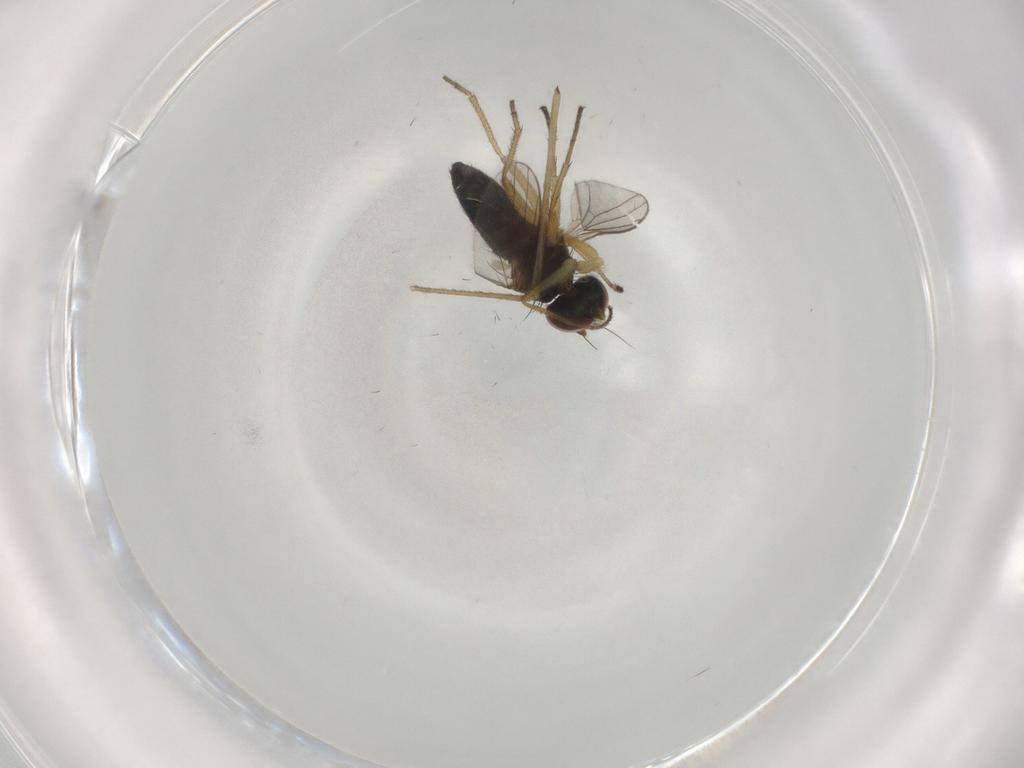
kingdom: Animalia
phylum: Arthropoda
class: Insecta
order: Diptera
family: Limoniidae
